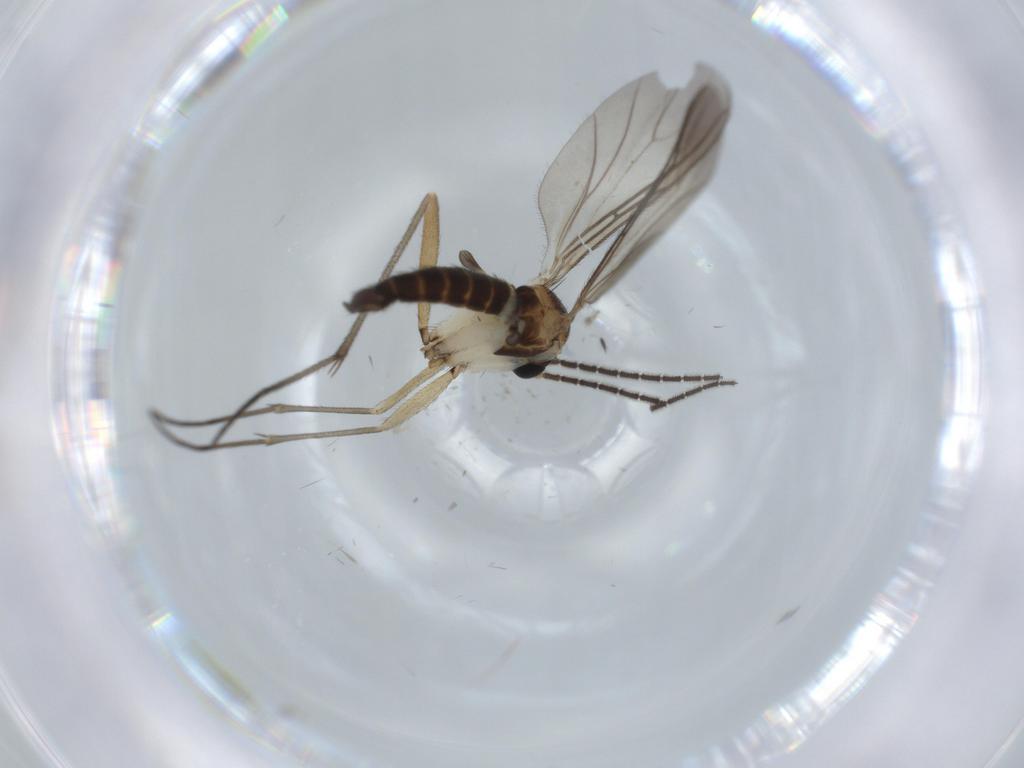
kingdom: Animalia
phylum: Arthropoda
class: Insecta
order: Diptera
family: Sciaridae
